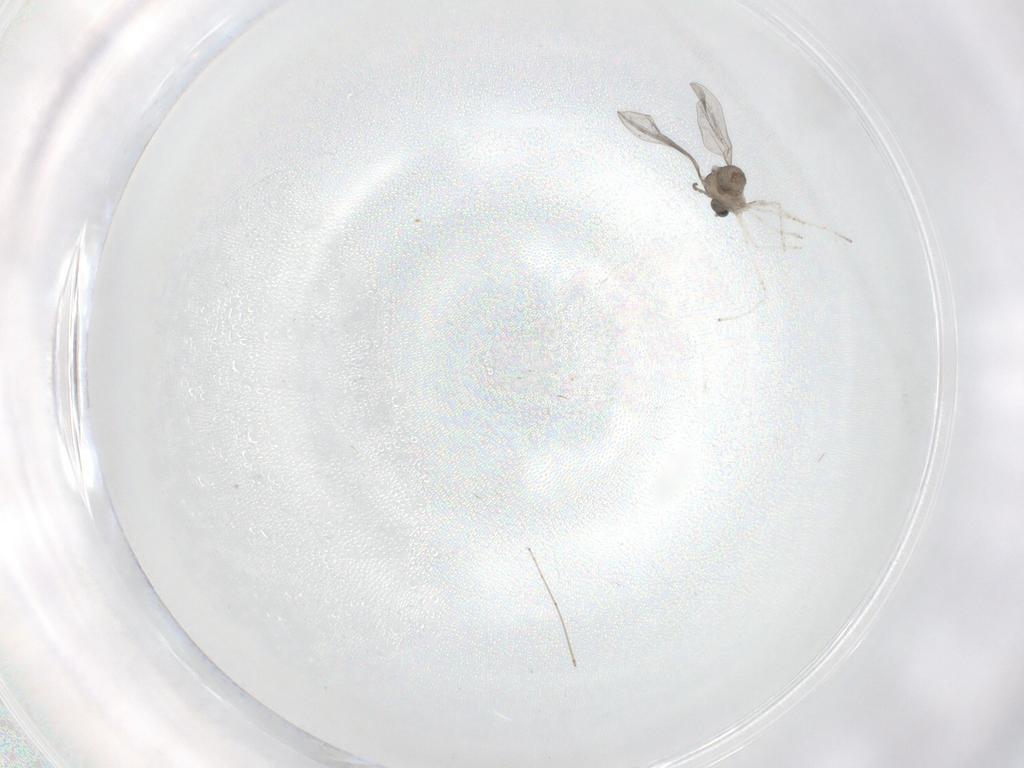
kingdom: Animalia
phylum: Arthropoda
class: Insecta
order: Diptera
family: Cecidomyiidae
